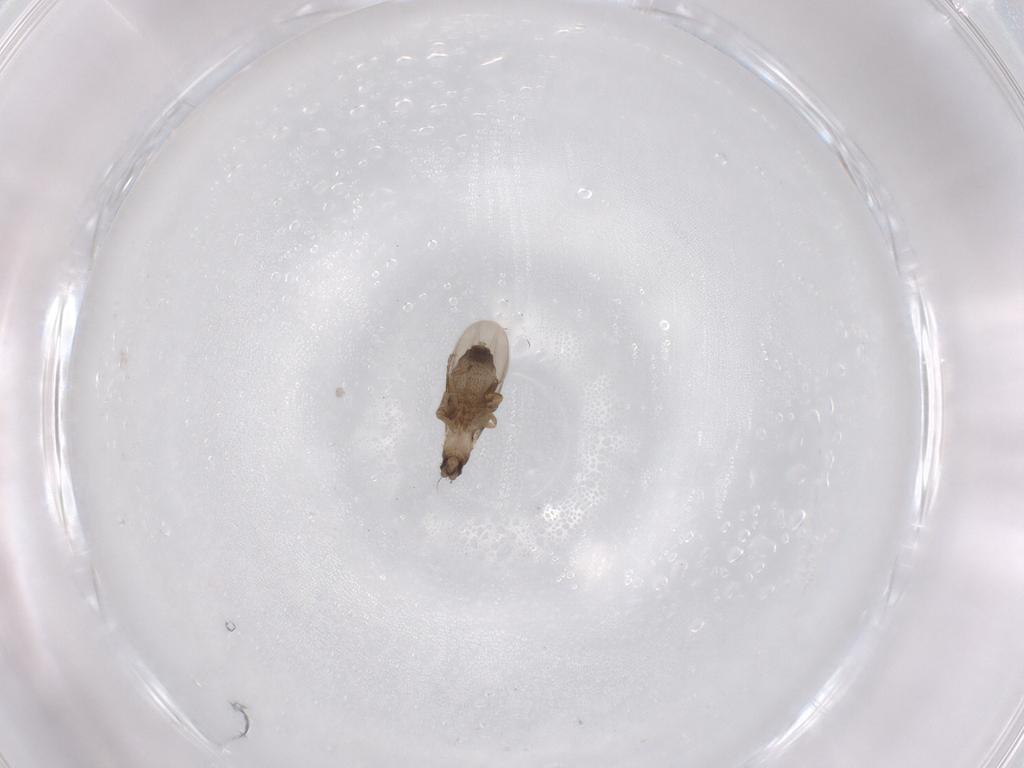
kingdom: Animalia
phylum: Arthropoda
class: Insecta
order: Diptera
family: Phoridae
